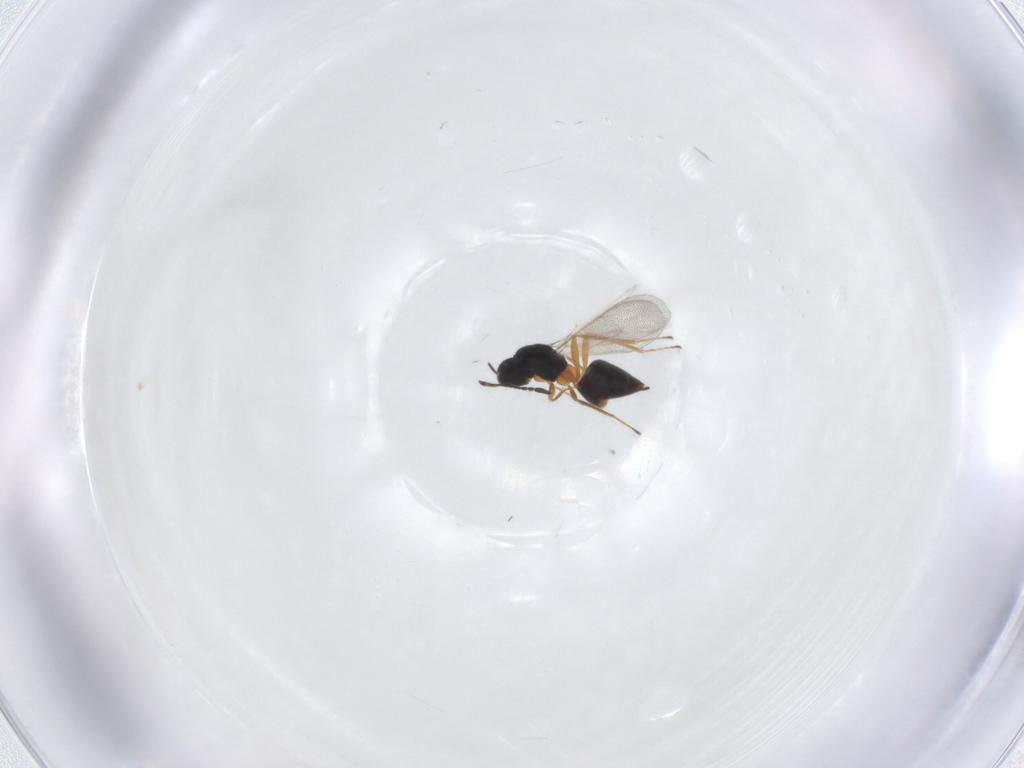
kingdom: Animalia
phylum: Arthropoda
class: Insecta
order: Hymenoptera
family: Mymaridae
